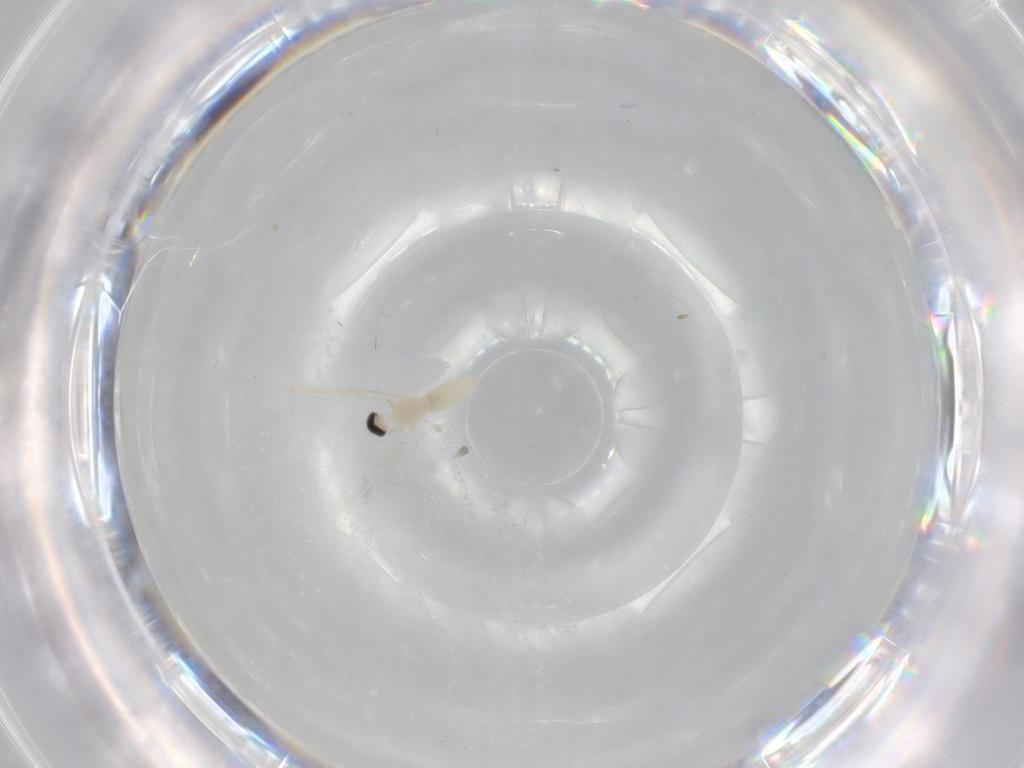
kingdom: Animalia
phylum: Arthropoda
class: Insecta
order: Diptera
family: Cecidomyiidae
